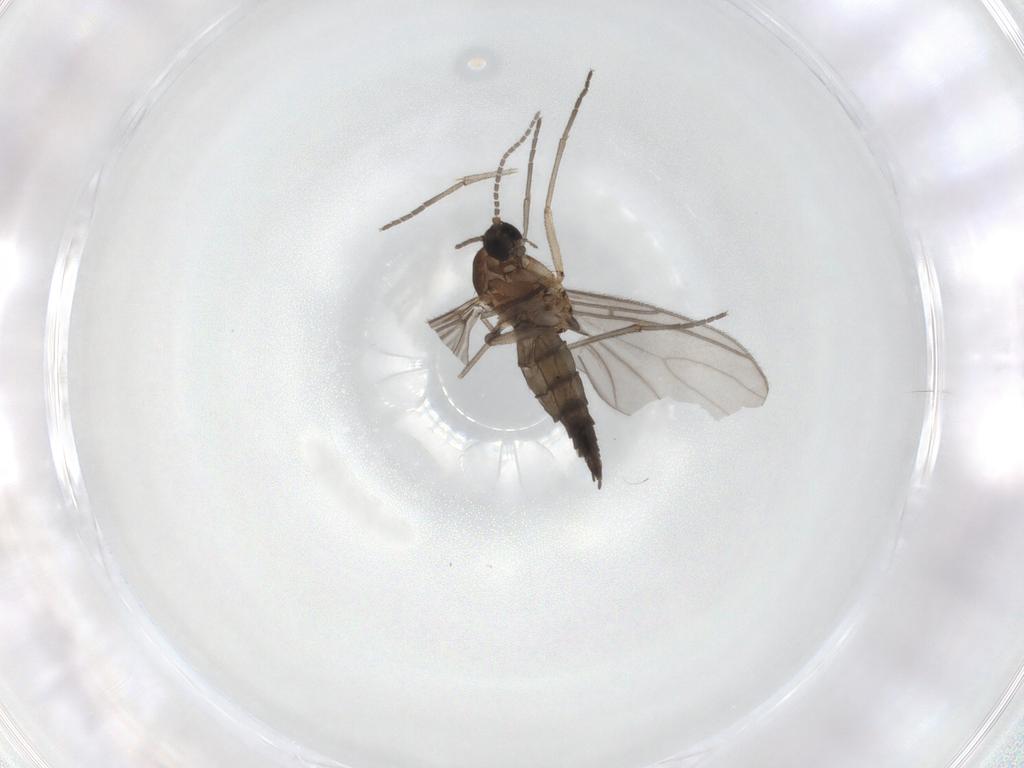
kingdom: Animalia
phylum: Arthropoda
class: Insecta
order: Diptera
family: Sciaridae
